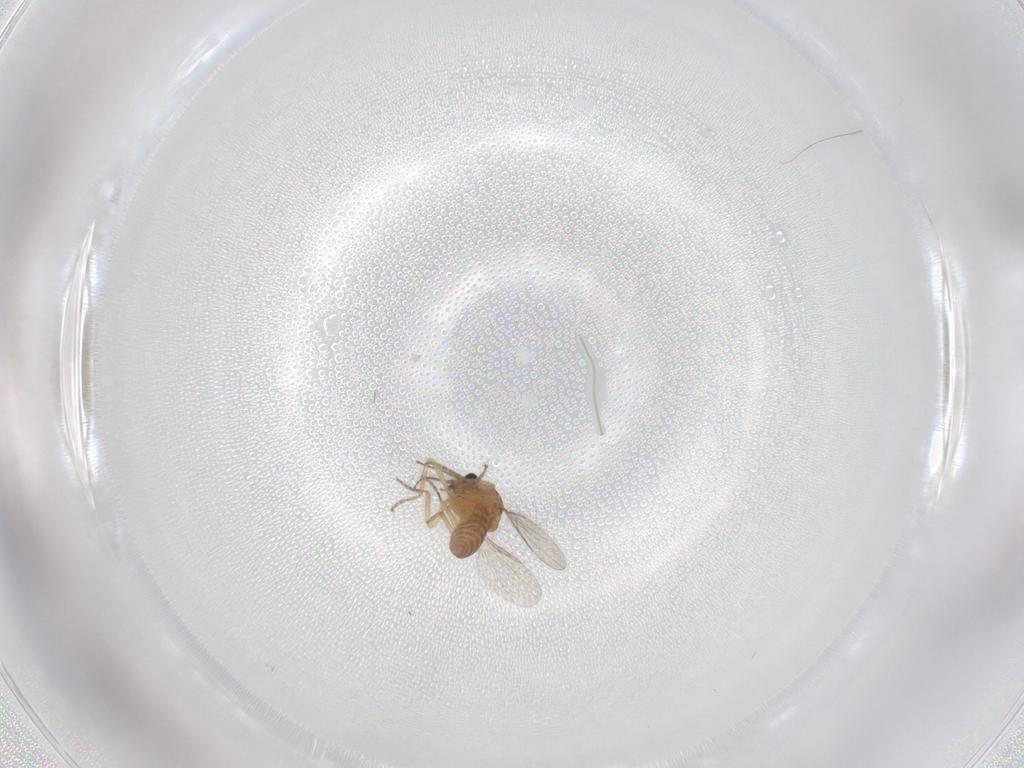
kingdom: Animalia
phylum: Arthropoda
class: Insecta
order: Diptera
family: Ceratopogonidae
